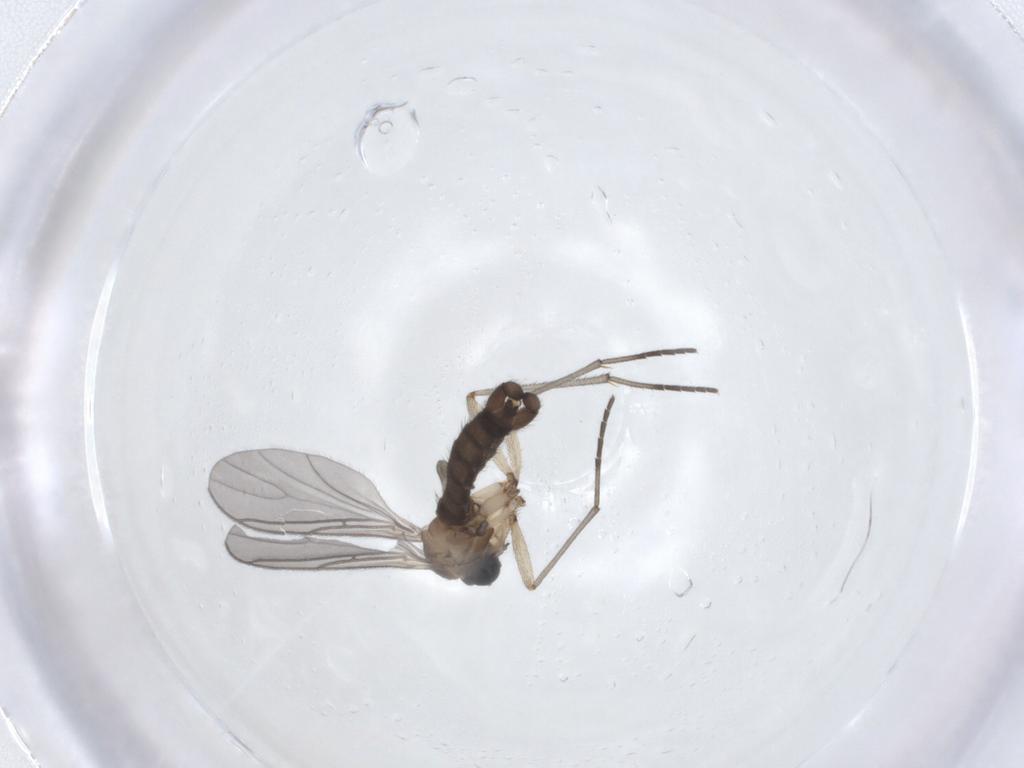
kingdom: Animalia
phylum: Arthropoda
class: Insecta
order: Diptera
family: Sciaridae
